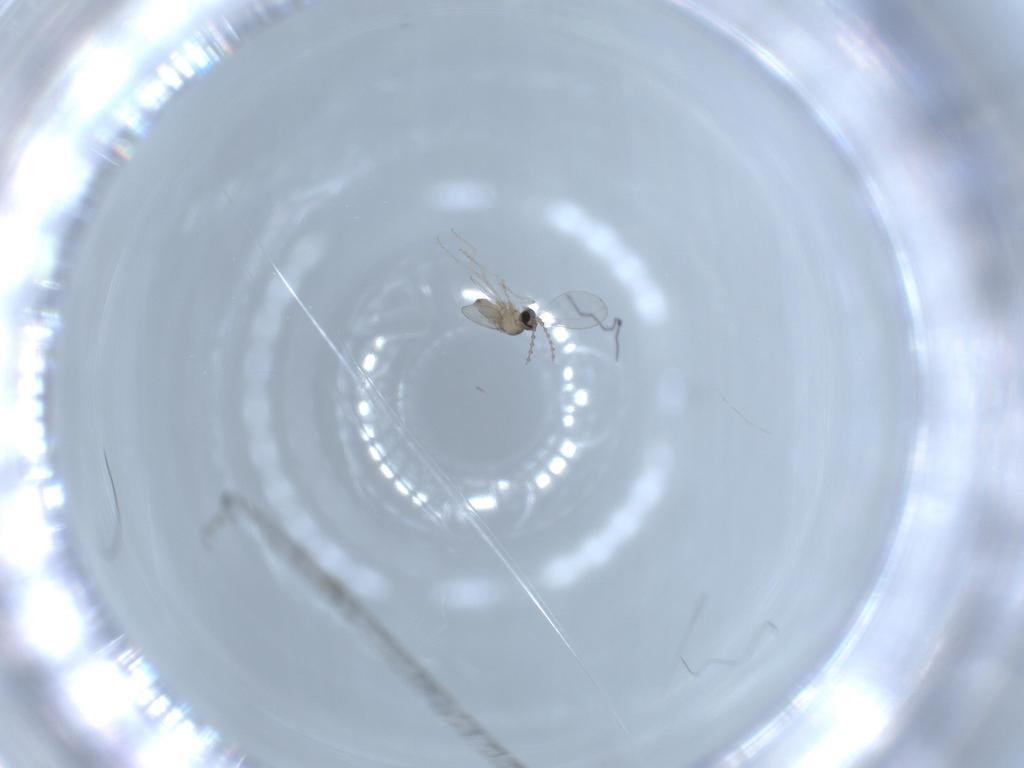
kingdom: Animalia
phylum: Arthropoda
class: Insecta
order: Diptera
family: Cecidomyiidae
